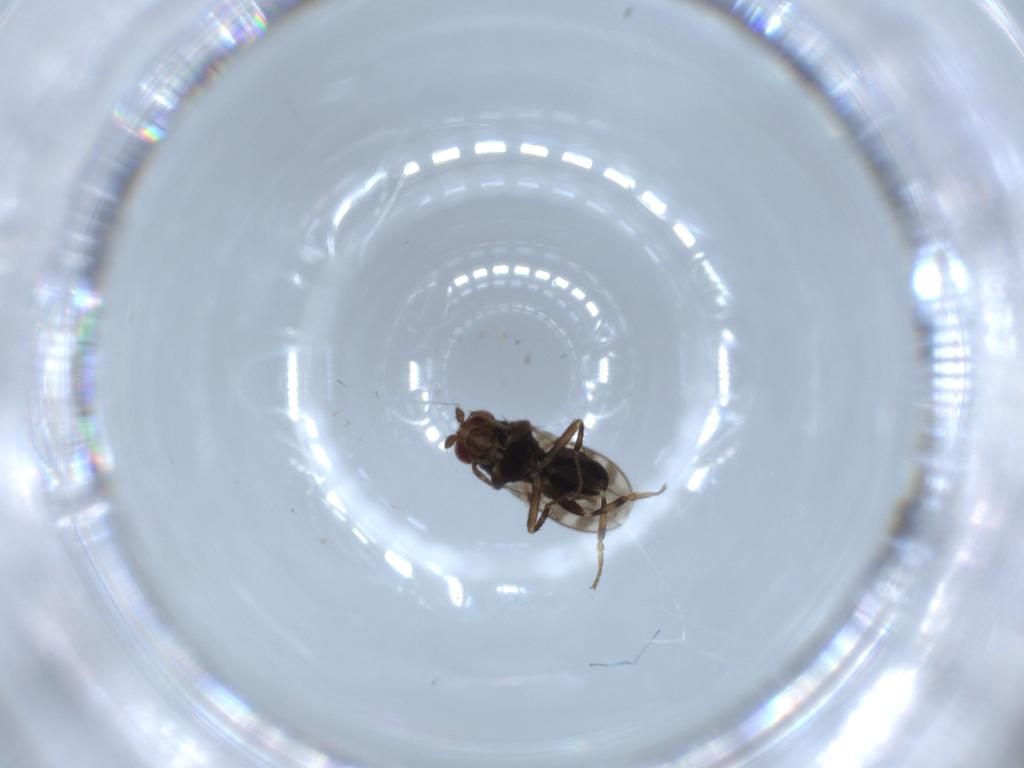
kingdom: Animalia
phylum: Arthropoda
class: Insecta
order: Diptera
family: Sphaeroceridae
